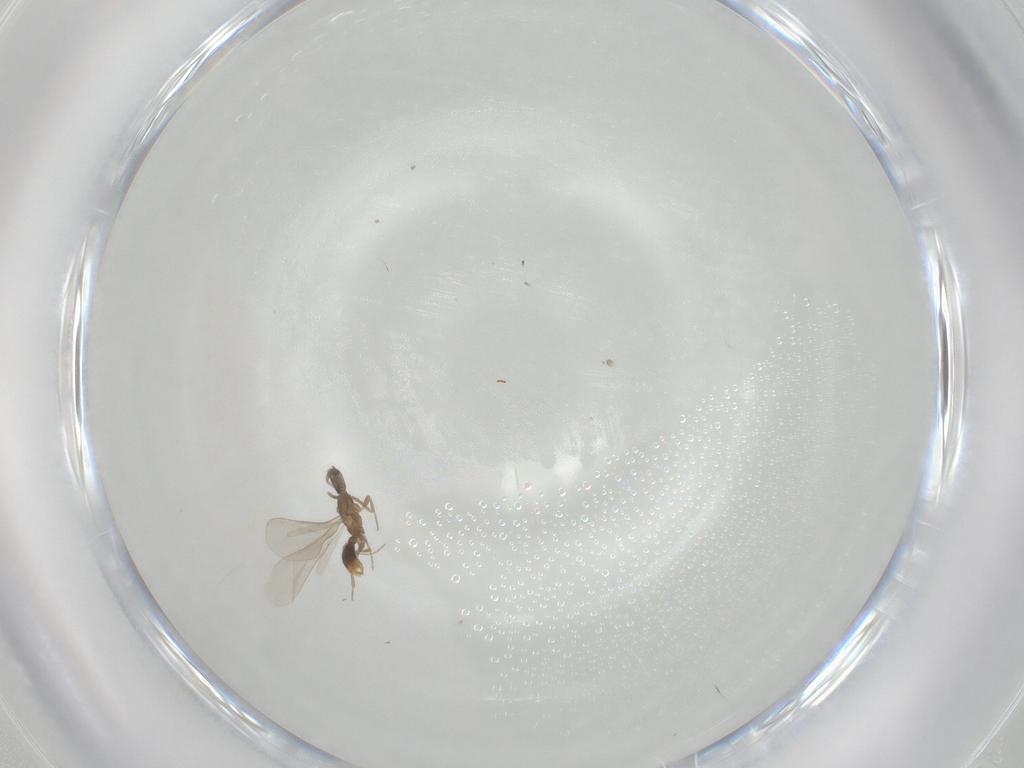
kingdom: Animalia
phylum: Arthropoda
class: Insecta
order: Hymenoptera
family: Formicidae
